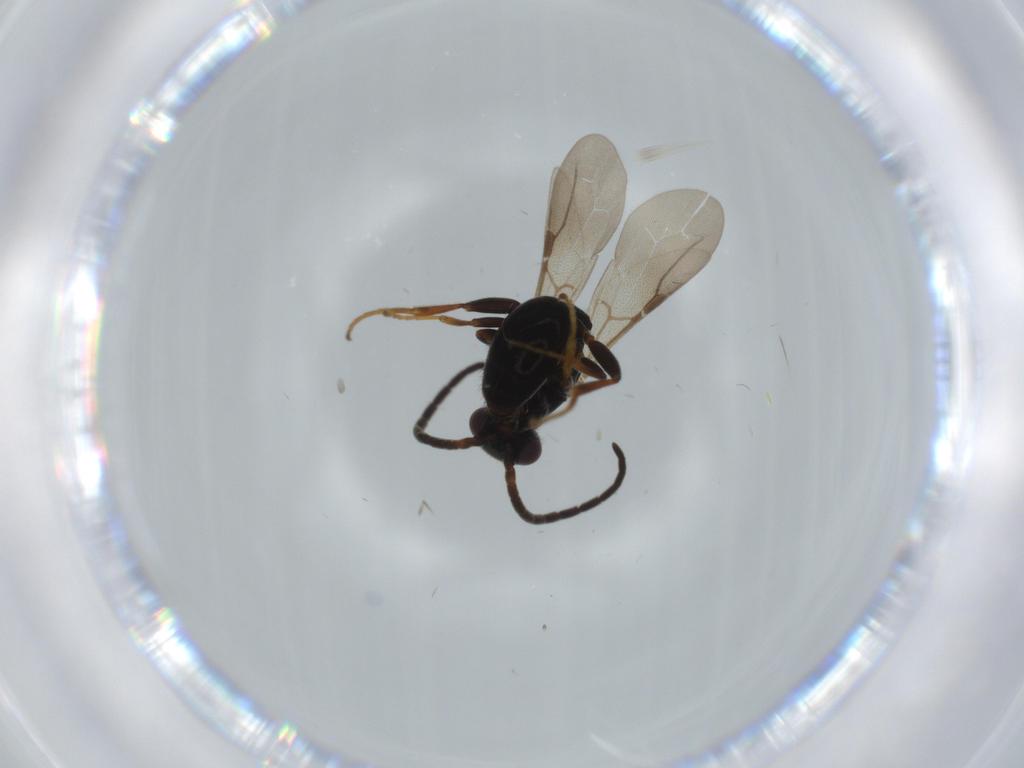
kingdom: Animalia
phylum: Arthropoda
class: Insecta
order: Hymenoptera
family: Bethylidae
